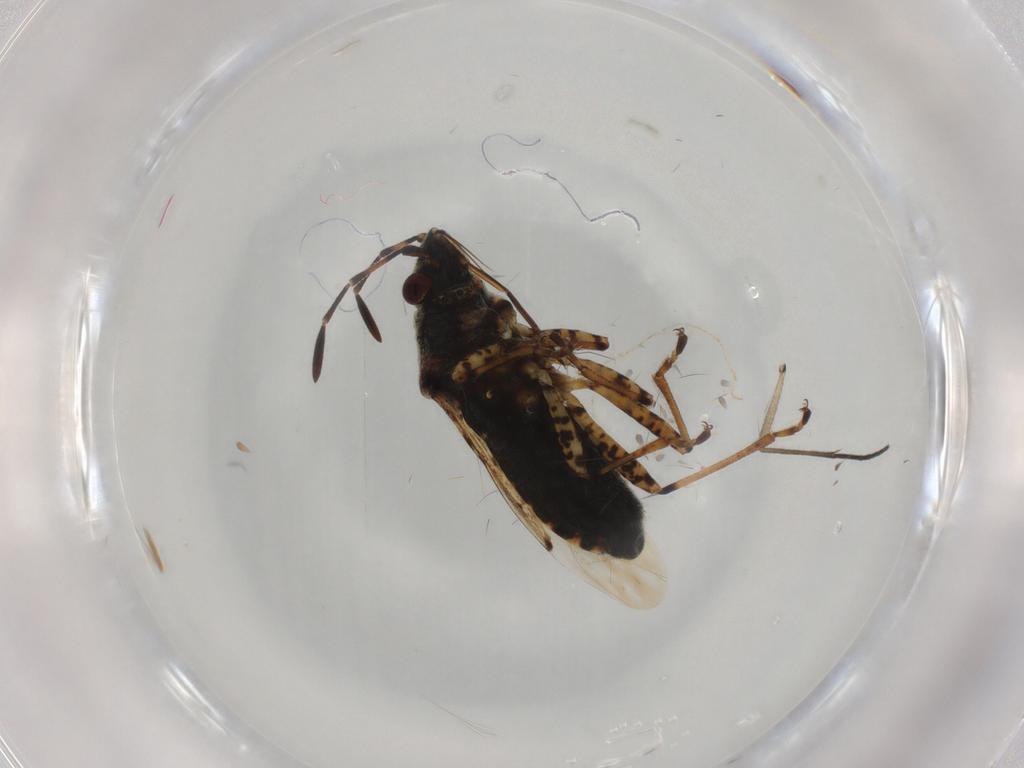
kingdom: Animalia
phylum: Arthropoda
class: Insecta
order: Hemiptera
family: Lygaeidae
